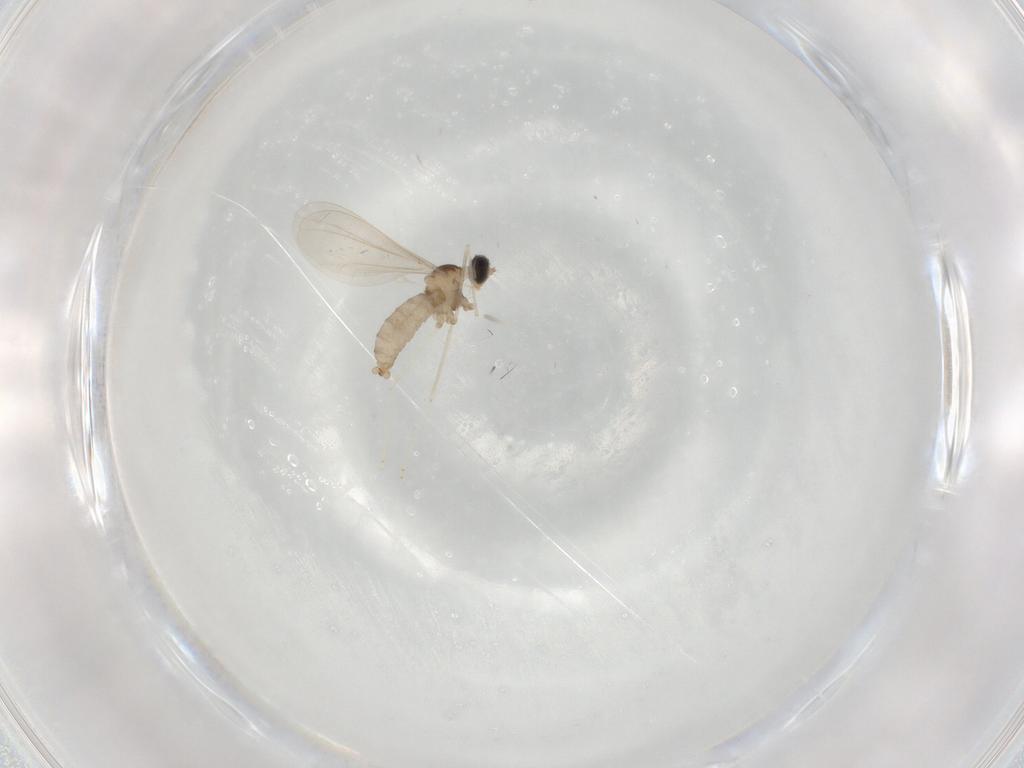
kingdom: Animalia
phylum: Arthropoda
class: Insecta
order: Diptera
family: Cecidomyiidae
